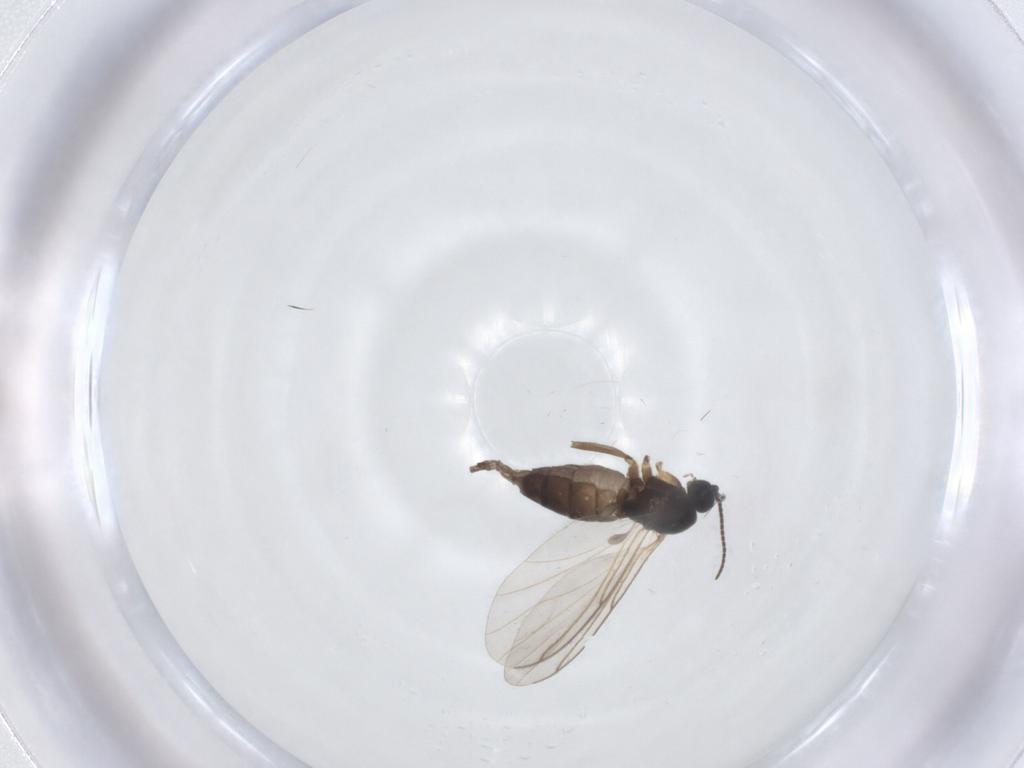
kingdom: Animalia
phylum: Arthropoda
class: Insecta
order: Diptera
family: Sciaridae
